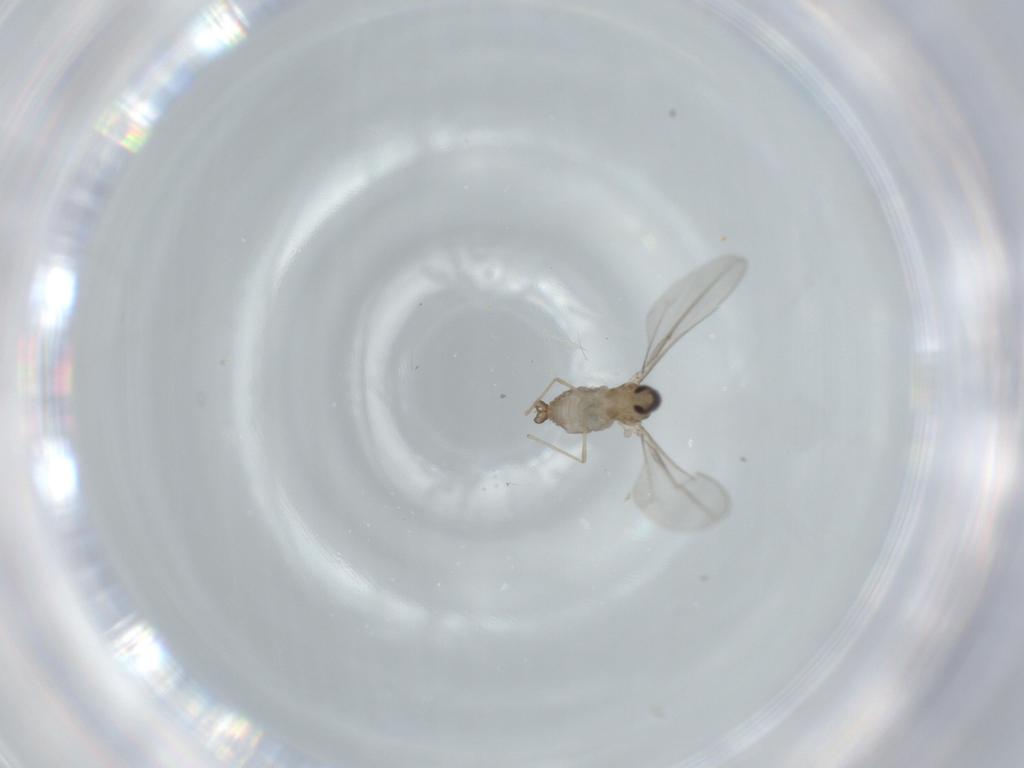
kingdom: Animalia
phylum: Arthropoda
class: Insecta
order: Diptera
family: Cecidomyiidae
